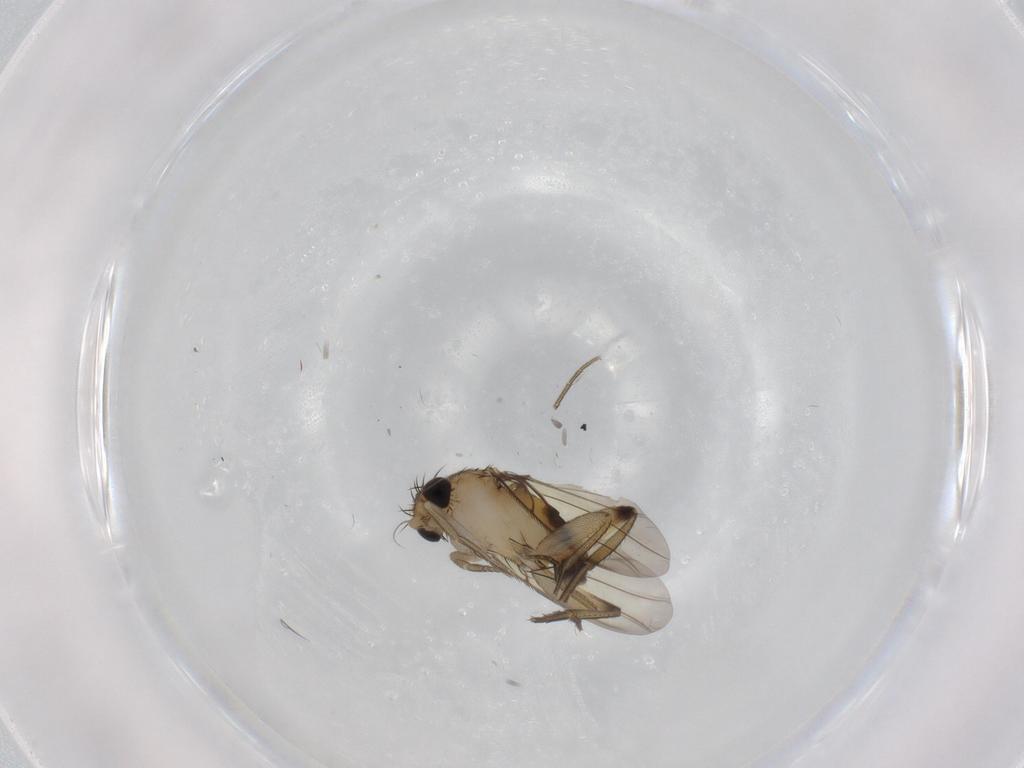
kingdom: Animalia
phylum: Arthropoda
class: Insecta
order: Diptera
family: Phoridae
